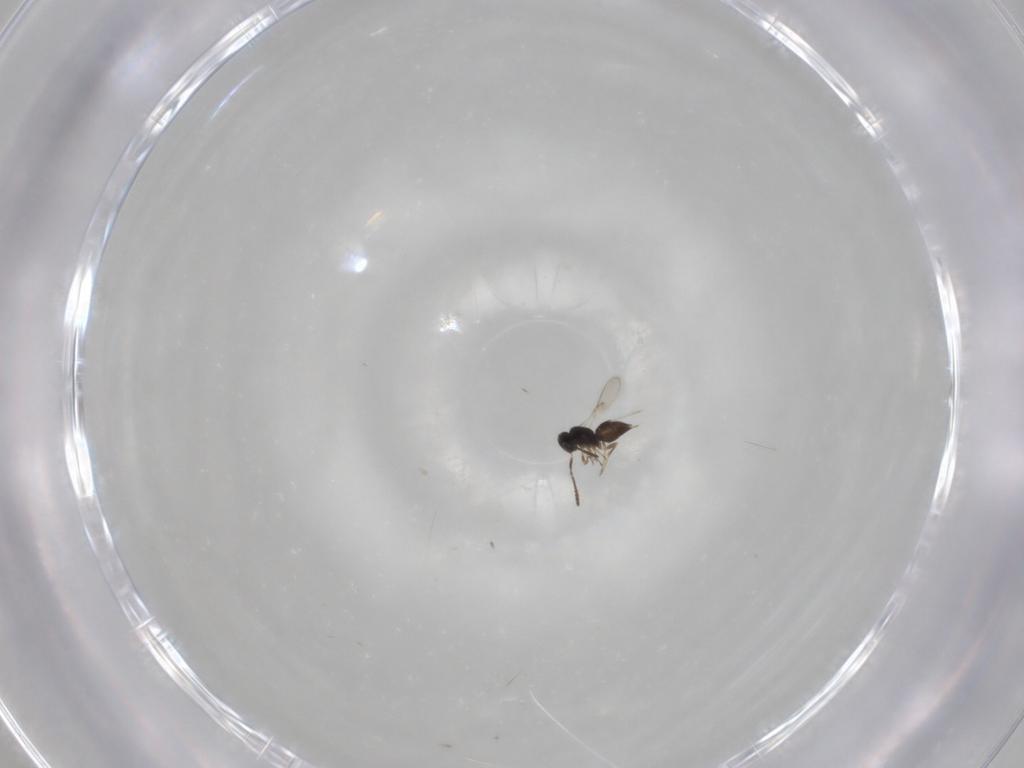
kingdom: Animalia
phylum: Arthropoda
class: Insecta
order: Hymenoptera
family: Scelionidae
